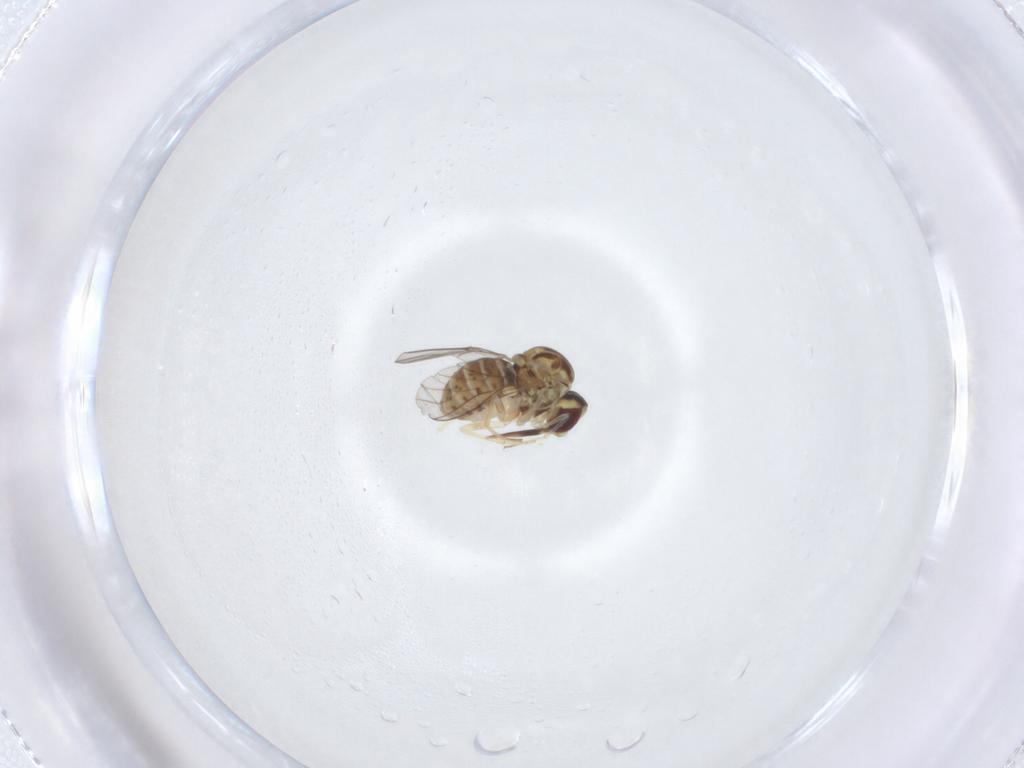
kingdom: Animalia
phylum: Arthropoda
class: Insecta
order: Diptera
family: Bombyliidae
